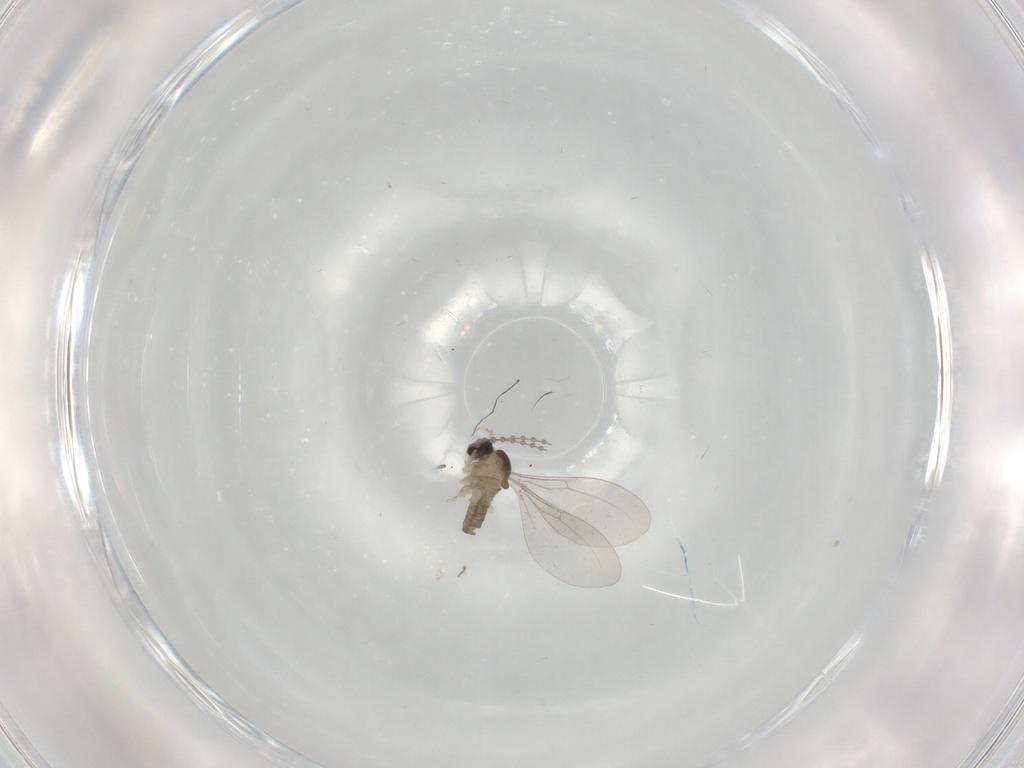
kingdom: Animalia
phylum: Arthropoda
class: Insecta
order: Diptera
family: Cecidomyiidae
